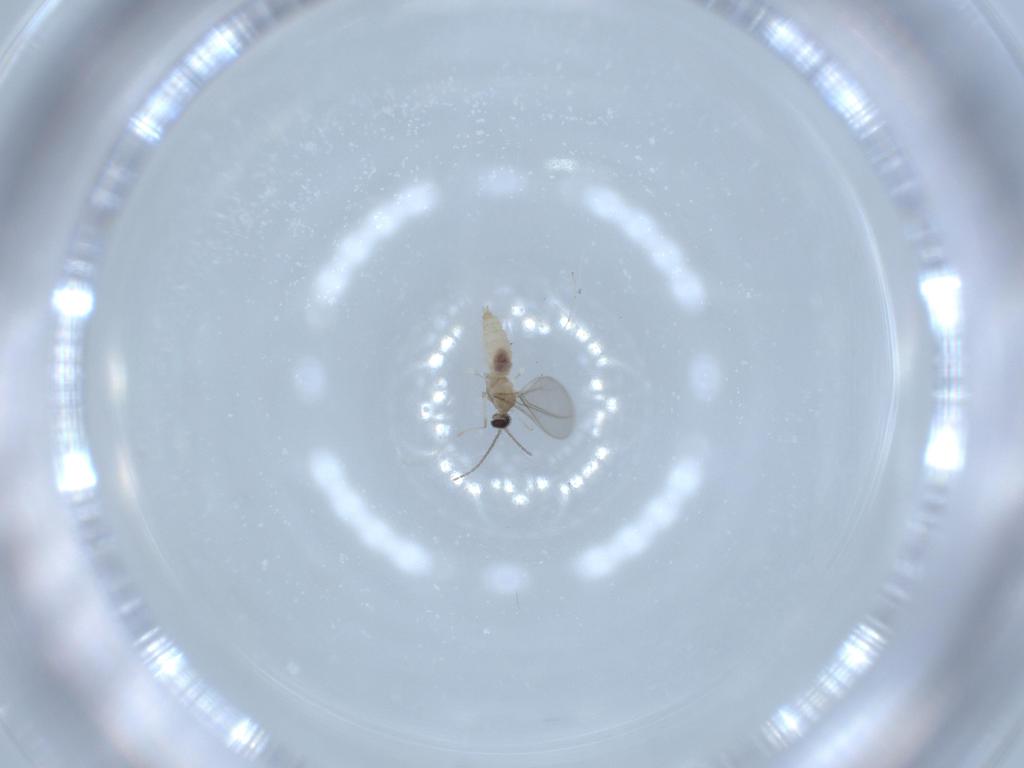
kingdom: Animalia
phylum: Arthropoda
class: Insecta
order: Diptera
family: Cecidomyiidae
